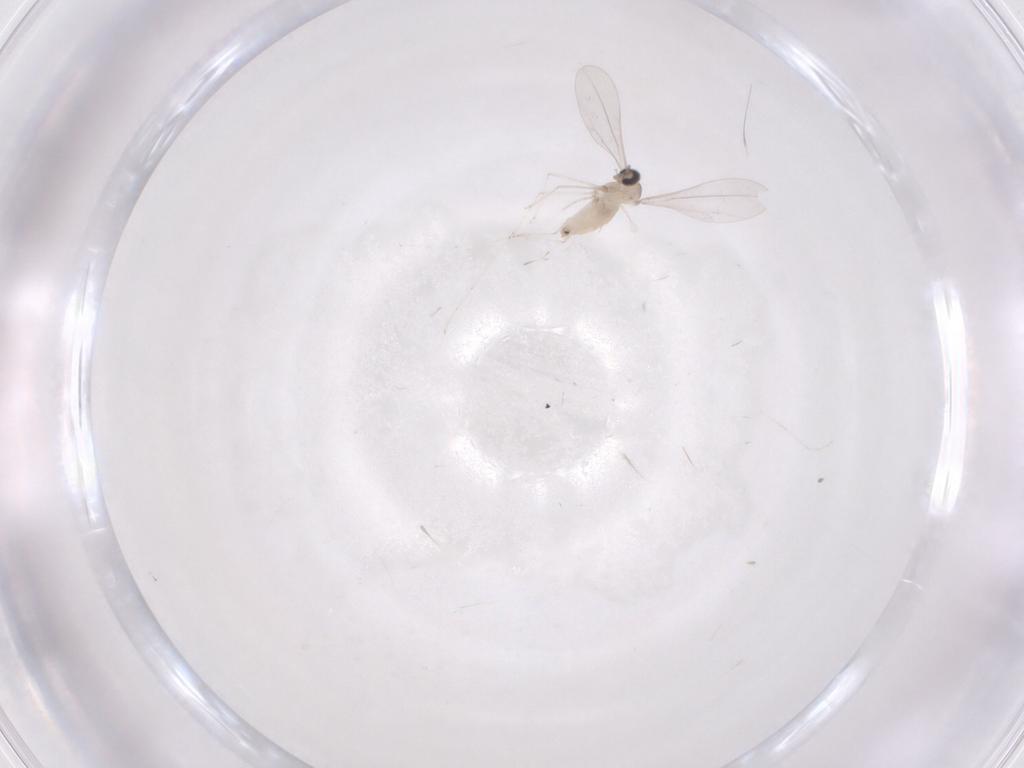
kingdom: Animalia
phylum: Arthropoda
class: Insecta
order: Diptera
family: Cecidomyiidae
